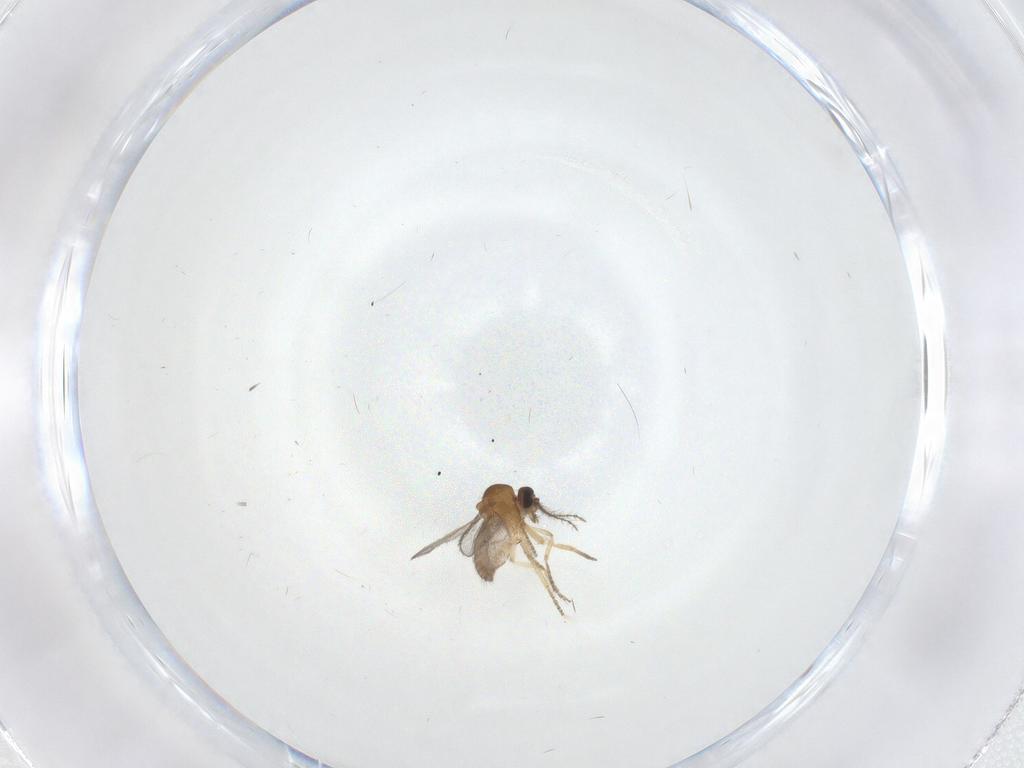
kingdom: Animalia
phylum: Arthropoda
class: Insecta
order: Diptera
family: Ceratopogonidae
